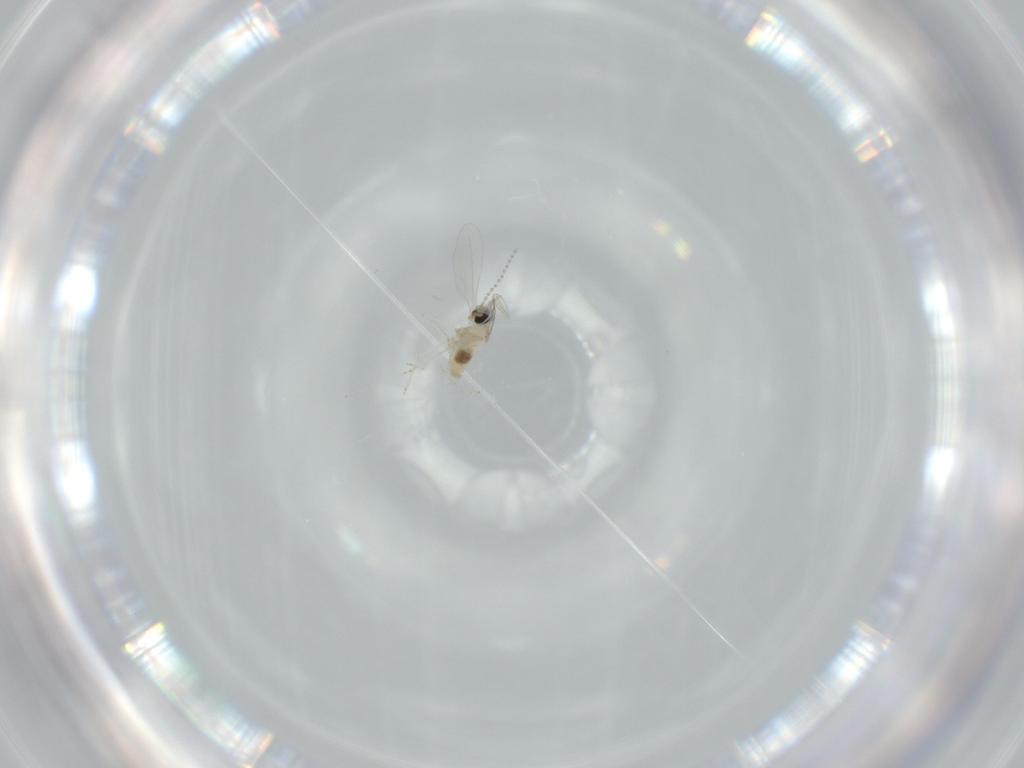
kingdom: Animalia
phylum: Arthropoda
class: Insecta
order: Diptera
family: Cecidomyiidae
